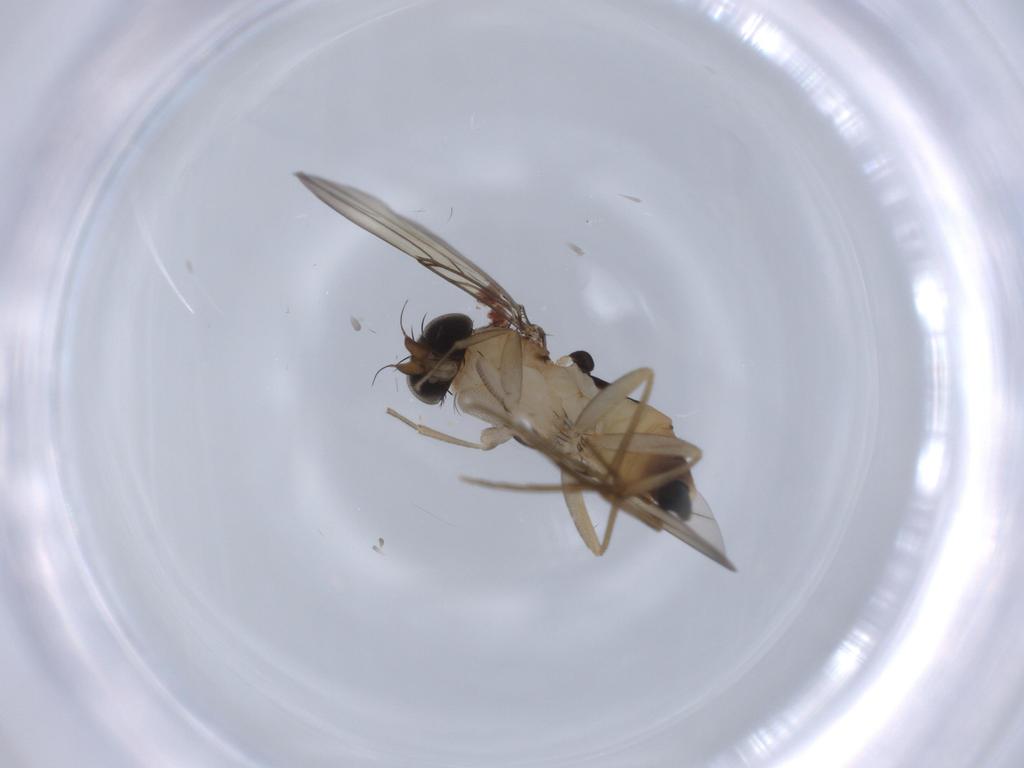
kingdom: Animalia
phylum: Arthropoda
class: Insecta
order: Diptera
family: Phoridae
